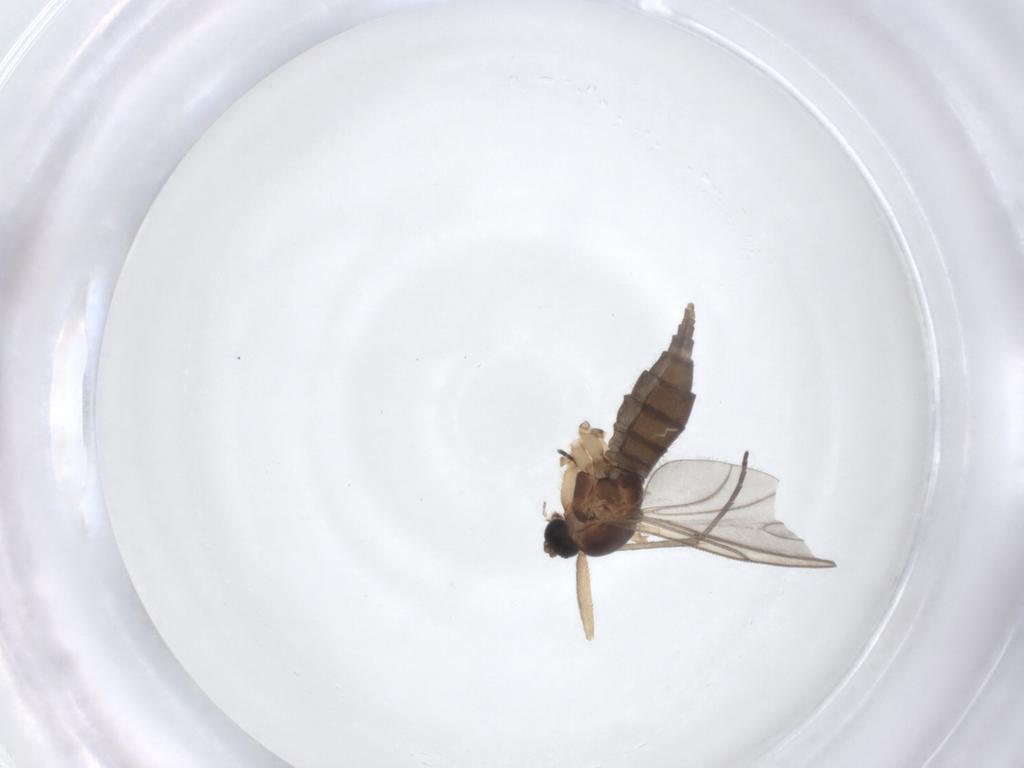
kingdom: Animalia
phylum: Arthropoda
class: Insecta
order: Diptera
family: Sciaridae
